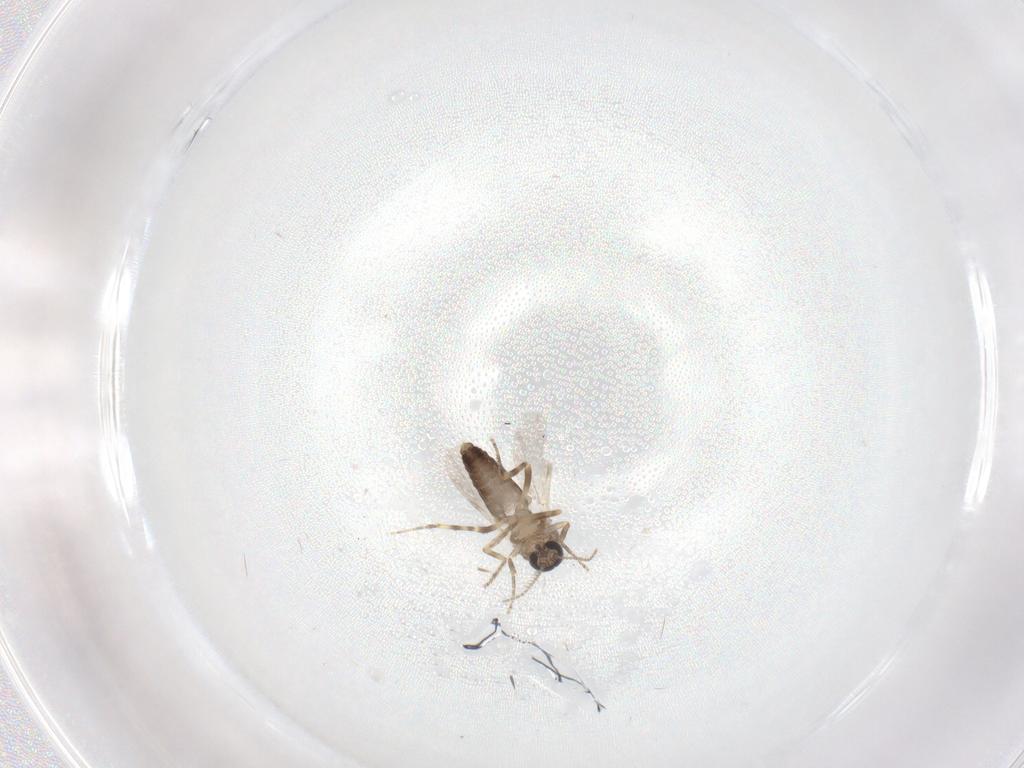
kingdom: Animalia
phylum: Arthropoda
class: Insecta
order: Diptera
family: Ceratopogonidae
